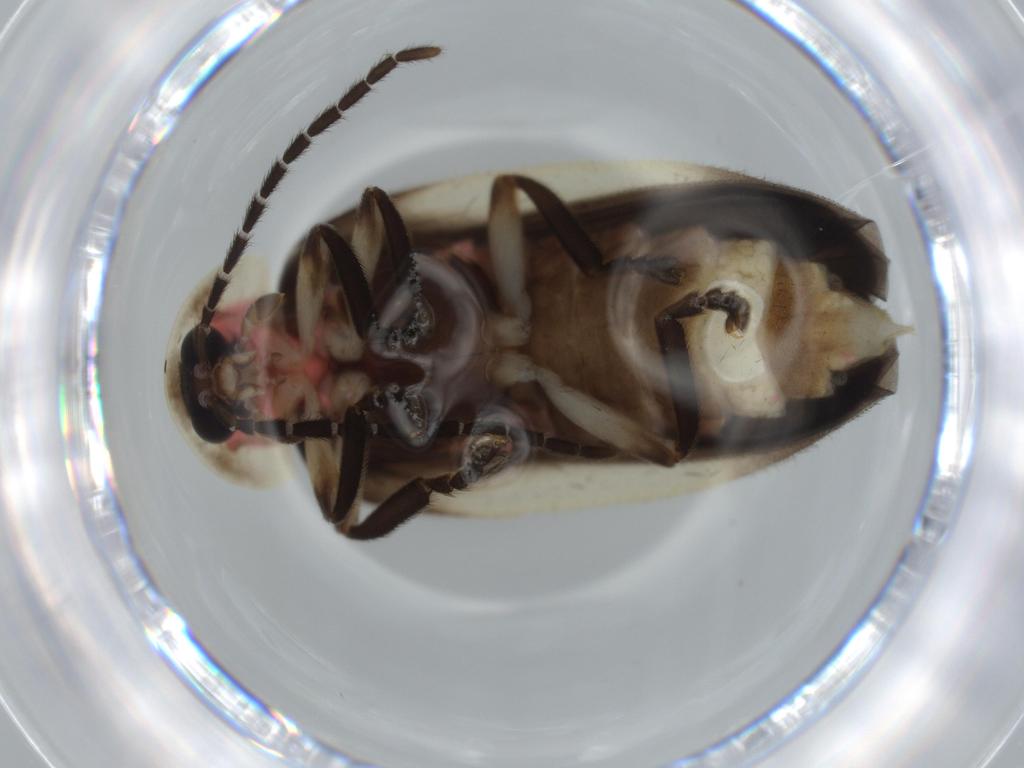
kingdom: Animalia
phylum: Arthropoda
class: Insecta
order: Coleoptera
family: Lampyridae
